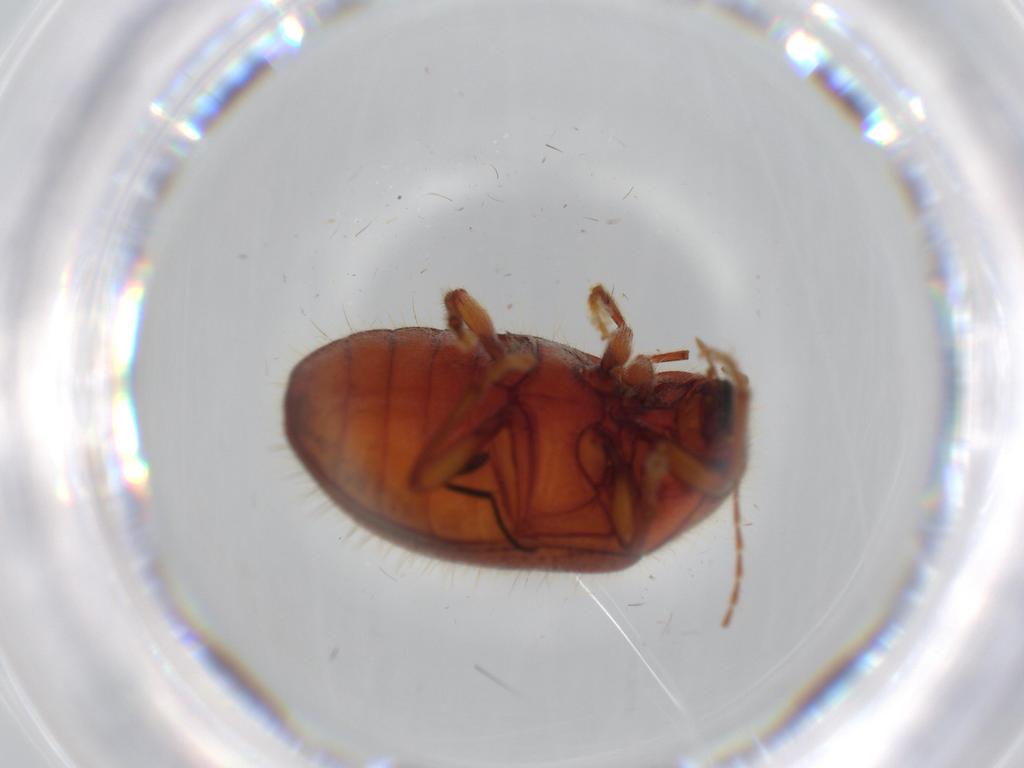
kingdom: Animalia
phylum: Arthropoda
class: Insecta
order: Coleoptera
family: Artematopodidae
